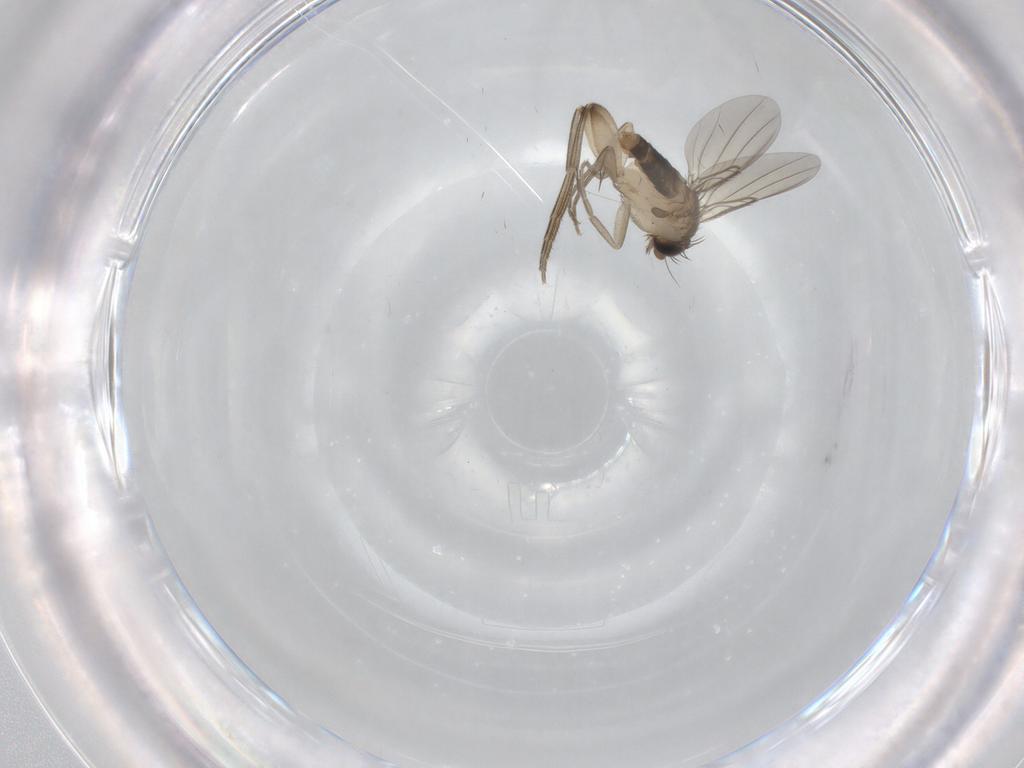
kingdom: Animalia
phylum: Arthropoda
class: Insecta
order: Diptera
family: Phoridae
